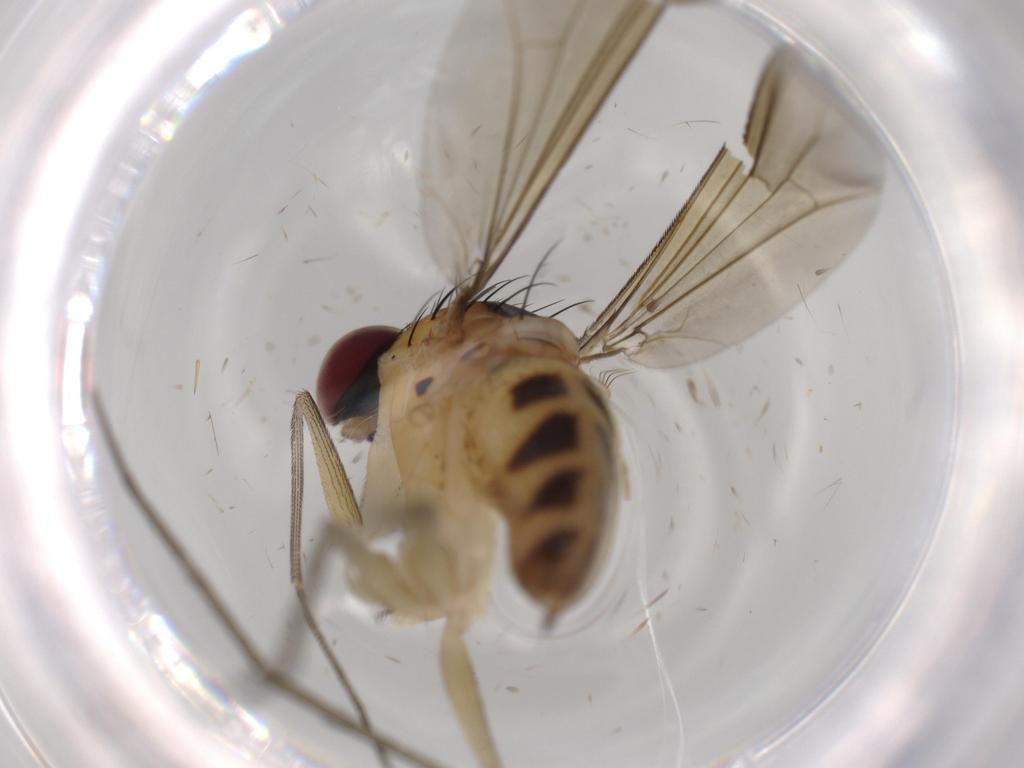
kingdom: Animalia
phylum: Arthropoda
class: Insecta
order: Diptera
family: Dolichopodidae
